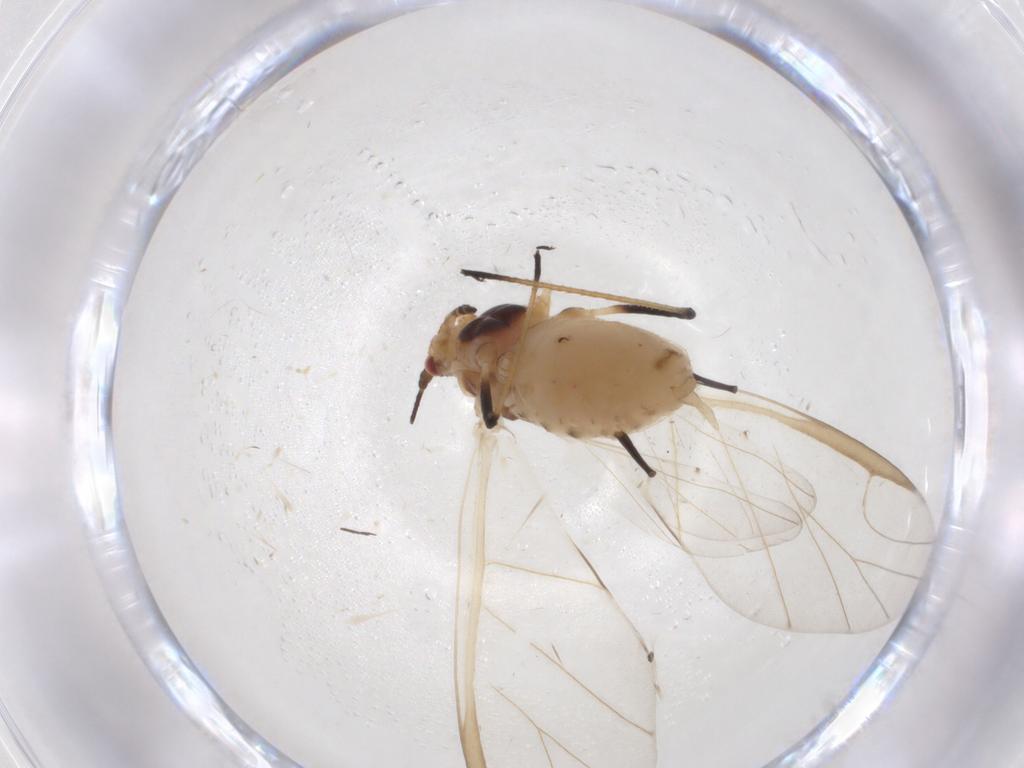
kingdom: Animalia
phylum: Arthropoda
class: Insecta
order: Hemiptera
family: Aphididae
